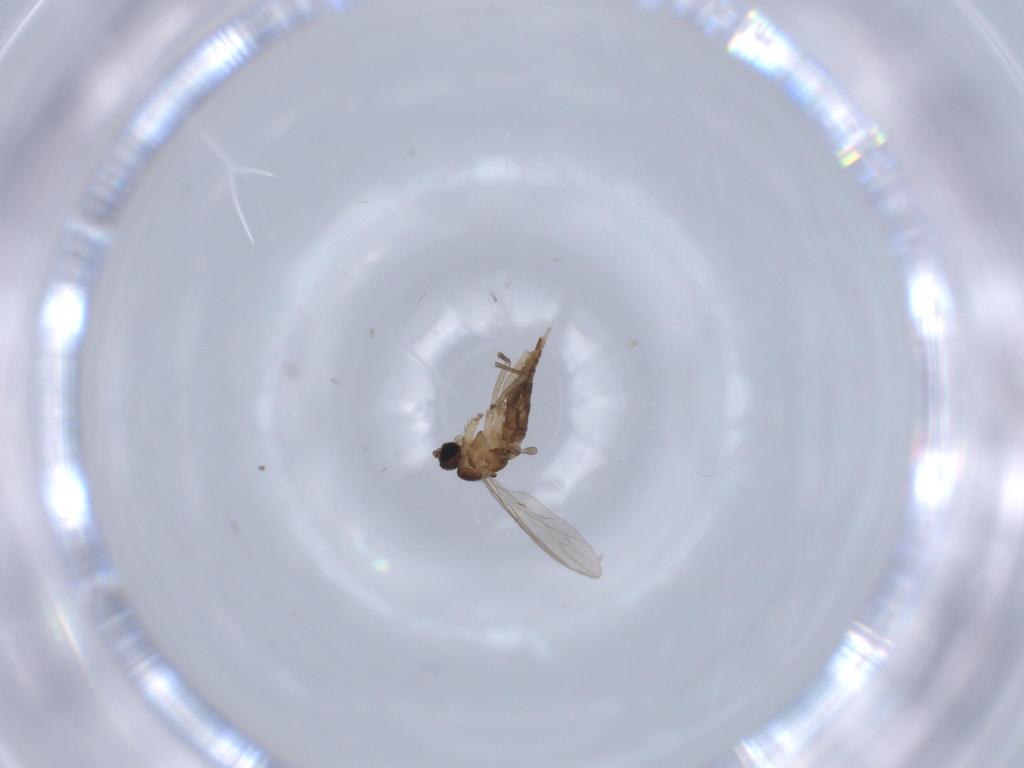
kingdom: Animalia
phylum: Arthropoda
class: Insecta
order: Diptera
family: Sciaridae
